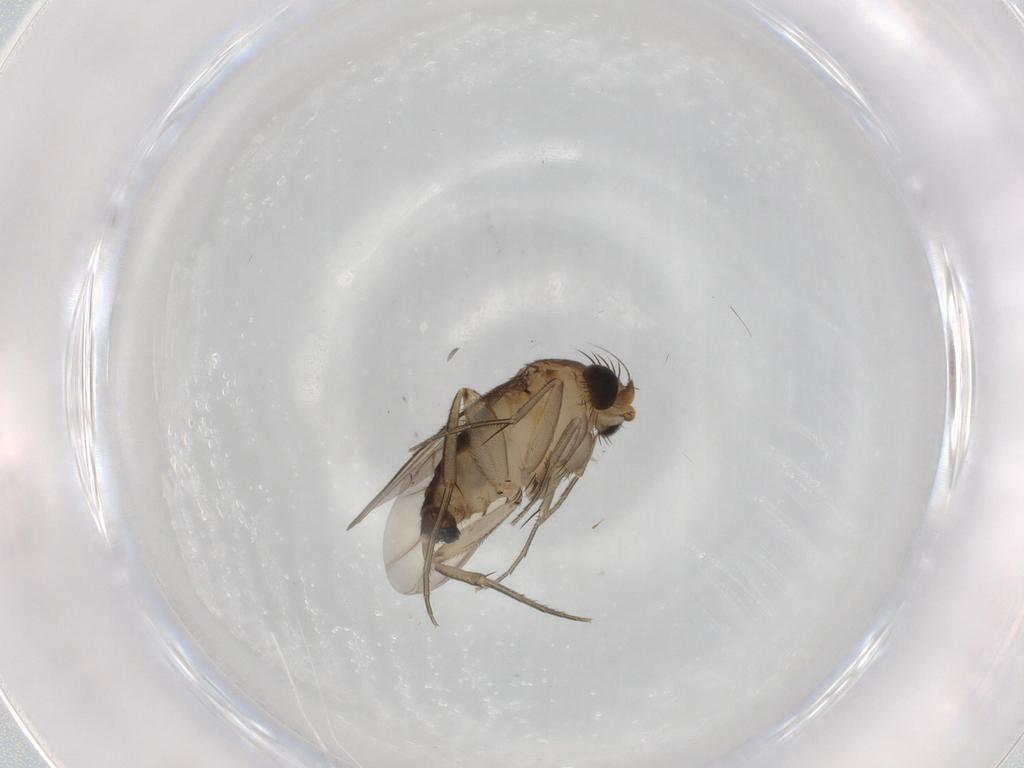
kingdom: Animalia
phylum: Arthropoda
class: Insecta
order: Diptera
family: Phoridae
